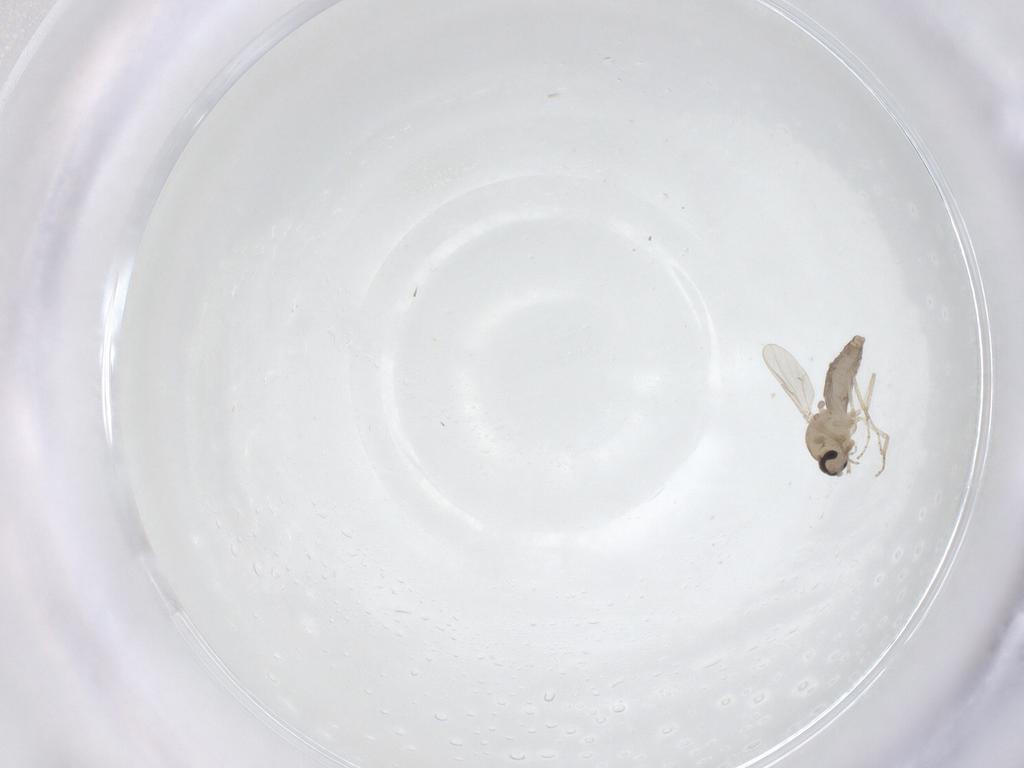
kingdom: Animalia
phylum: Arthropoda
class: Insecta
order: Diptera
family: Ceratopogonidae
